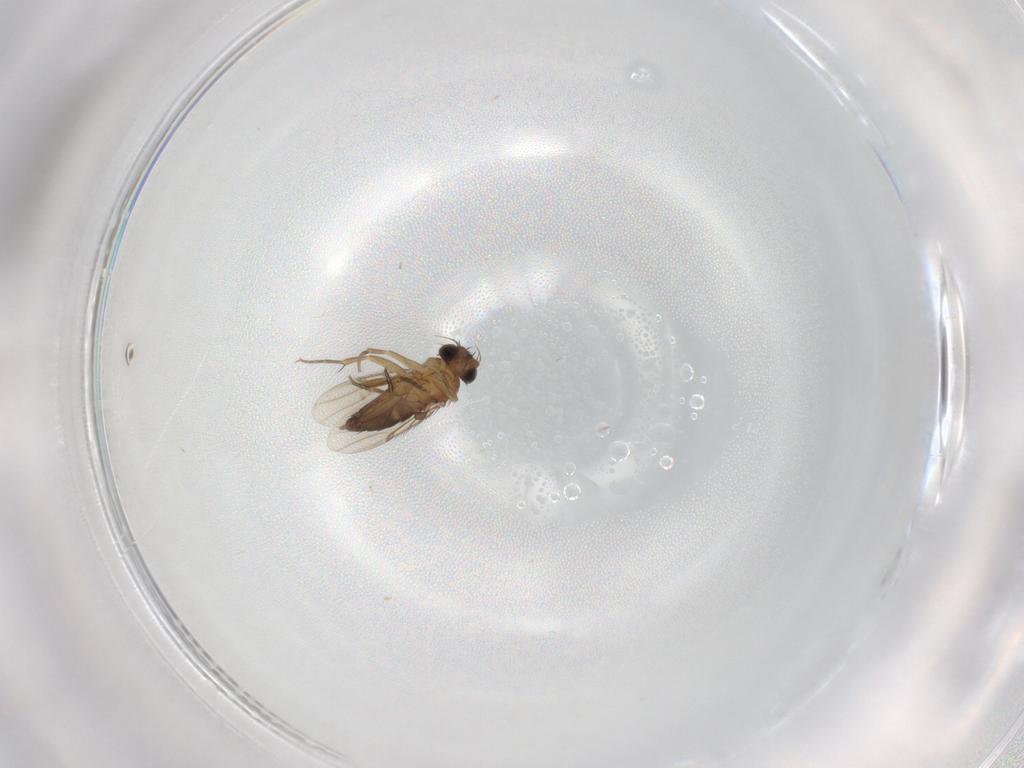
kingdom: Animalia
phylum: Arthropoda
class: Insecta
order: Diptera
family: Phoridae
